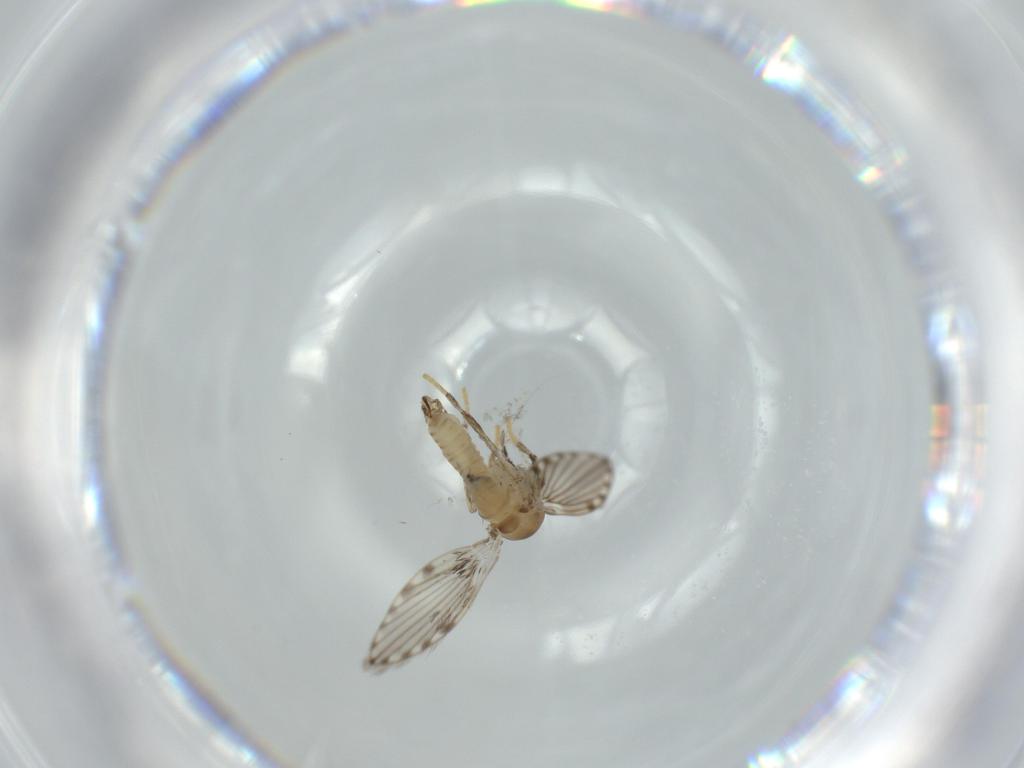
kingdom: Animalia
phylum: Arthropoda
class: Insecta
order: Diptera
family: Psychodidae
